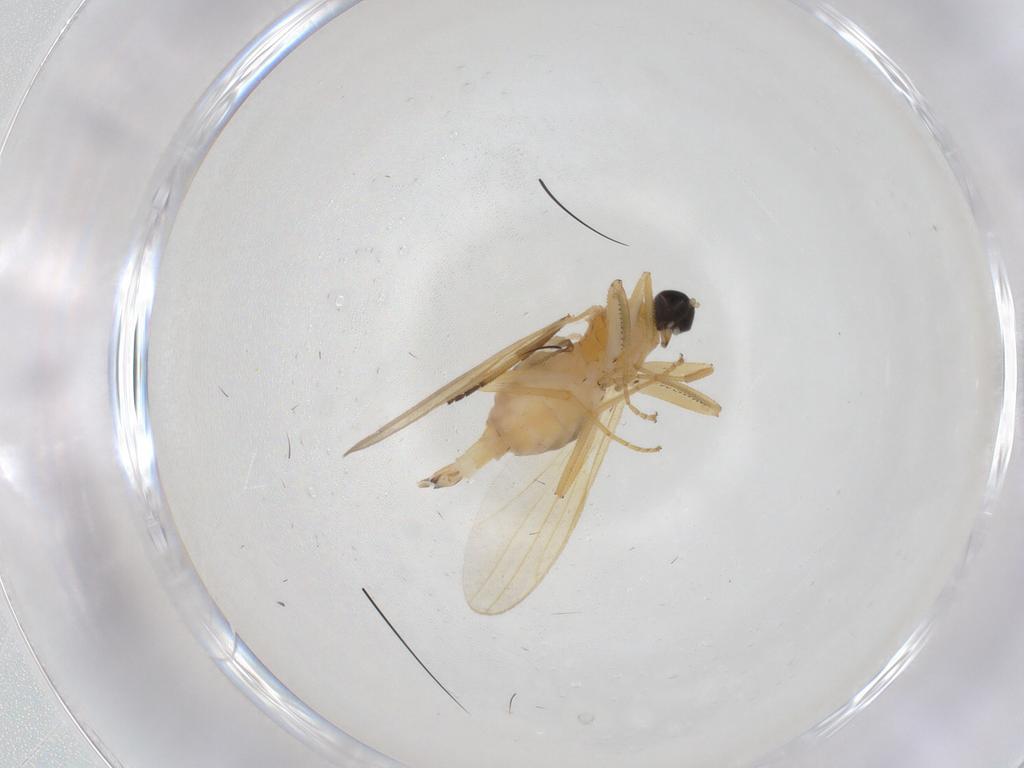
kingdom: Animalia
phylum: Arthropoda
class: Insecta
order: Diptera
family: Hybotidae
